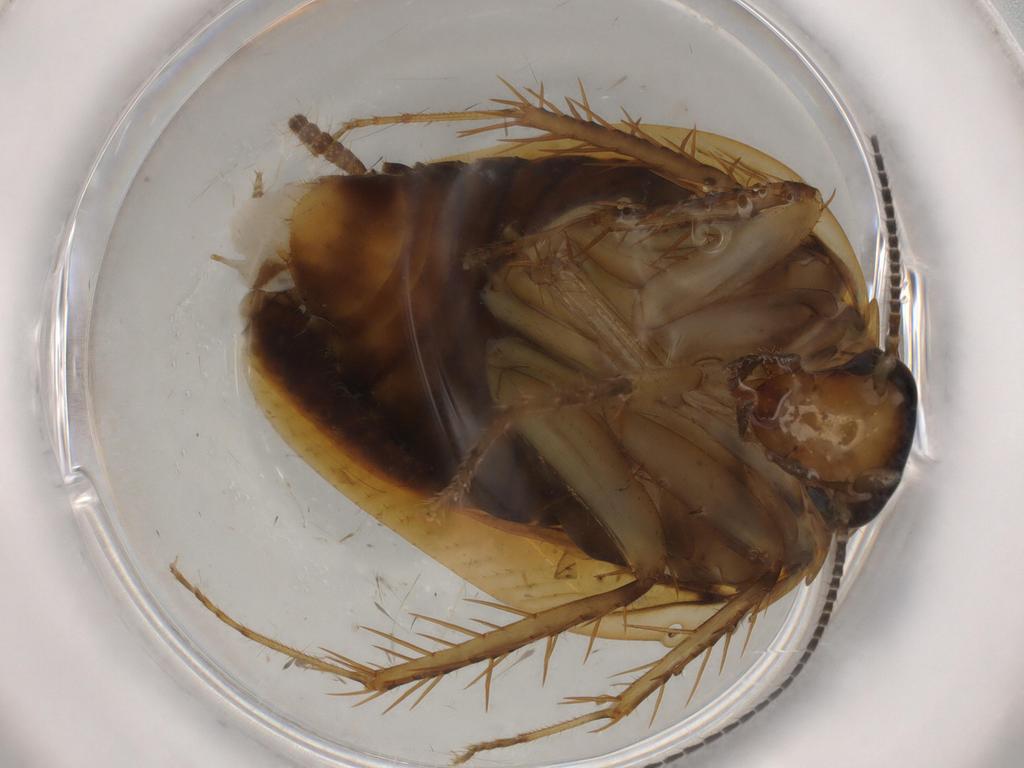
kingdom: Animalia
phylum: Arthropoda
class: Insecta
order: Blattodea
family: Ectobiidae
